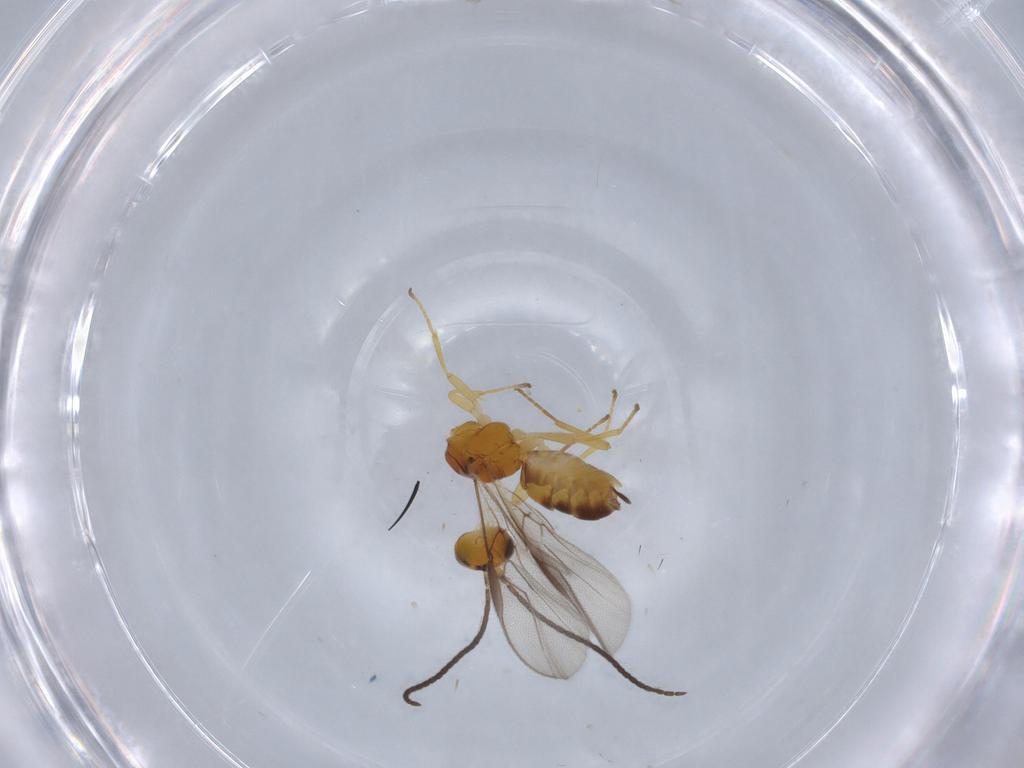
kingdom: Animalia
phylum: Arthropoda
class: Insecta
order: Hymenoptera
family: Braconidae
